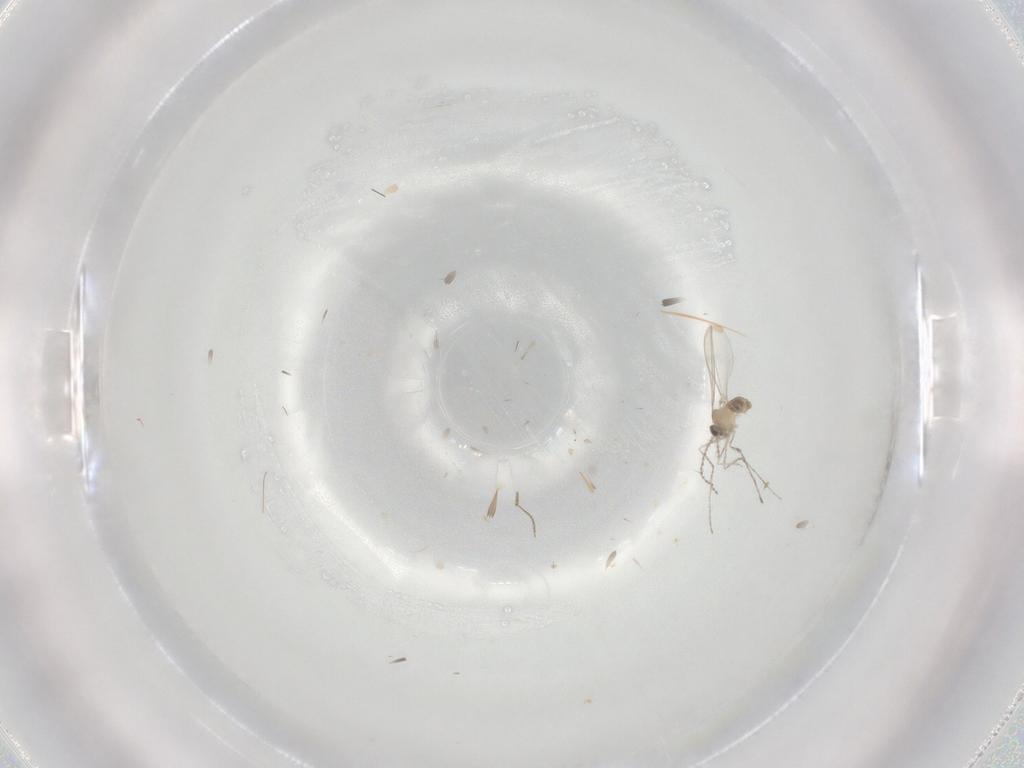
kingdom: Animalia
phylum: Arthropoda
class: Insecta
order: Diptera
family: Cecidomyiidae
